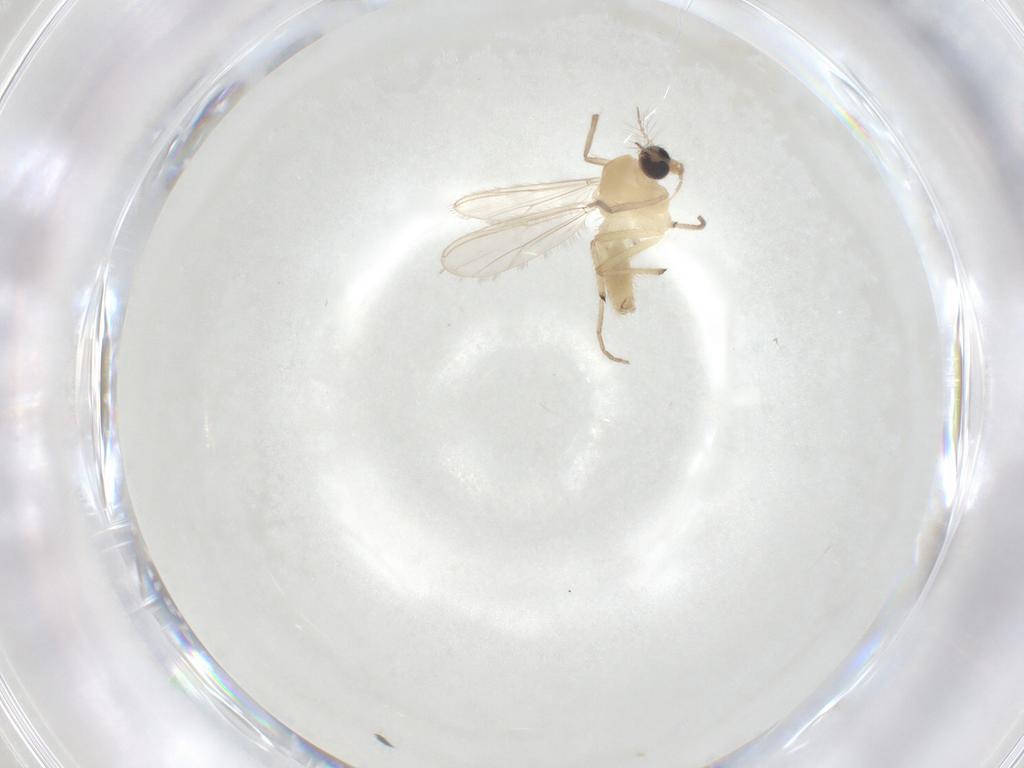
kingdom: Animalia
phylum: Arthropoda
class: Insecta
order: Diptera
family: Chironomidae
